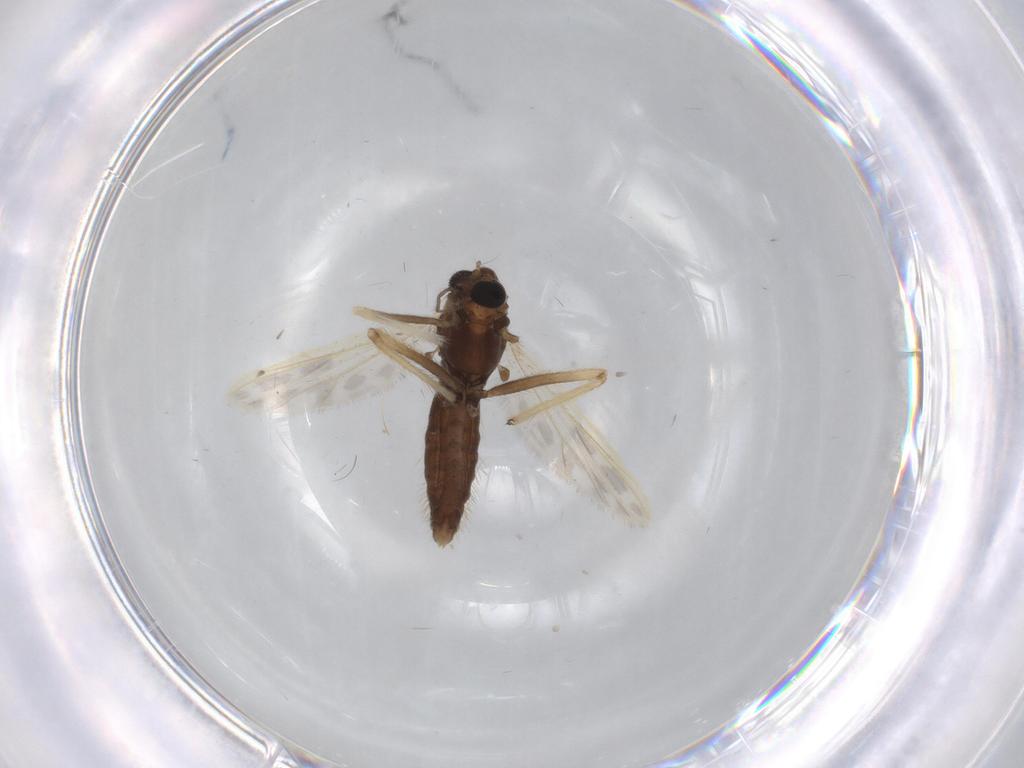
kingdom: Animalia
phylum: Arthropoda
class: Insecta
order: Diptera
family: Chironomidae
